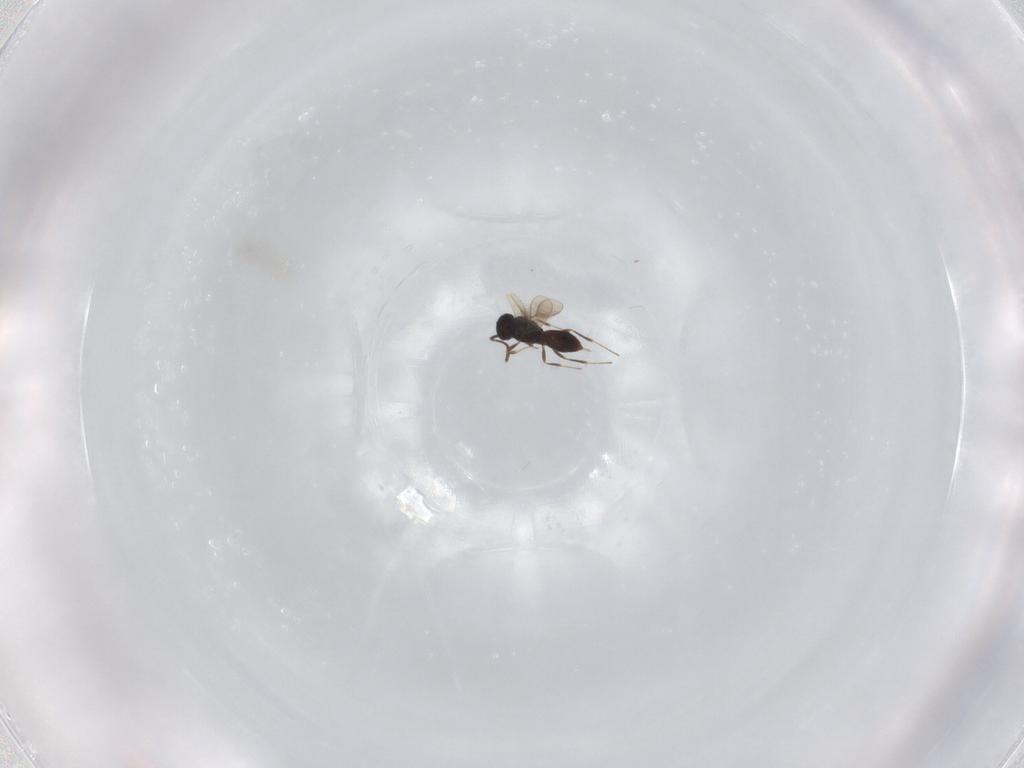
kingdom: Animalia
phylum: Arthropoda
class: Insecta
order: Hymenoptera
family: Scelionidae
